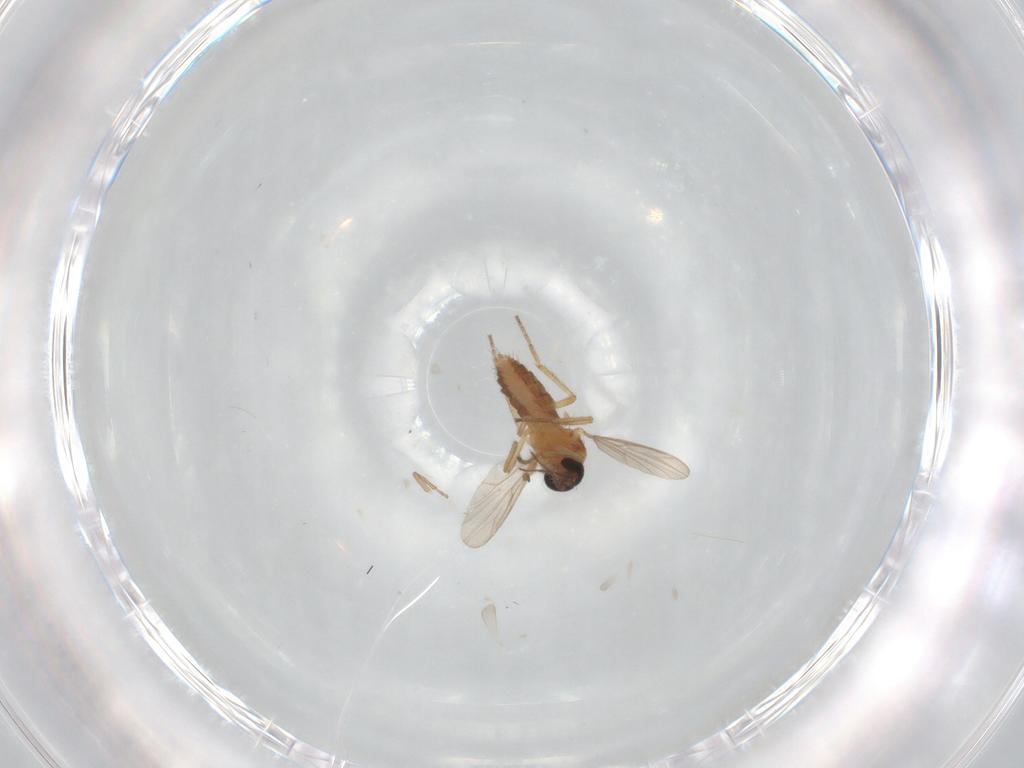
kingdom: Animalia
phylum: Arthropoda
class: Insecta
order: Diptera
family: Ceratopogonidae
